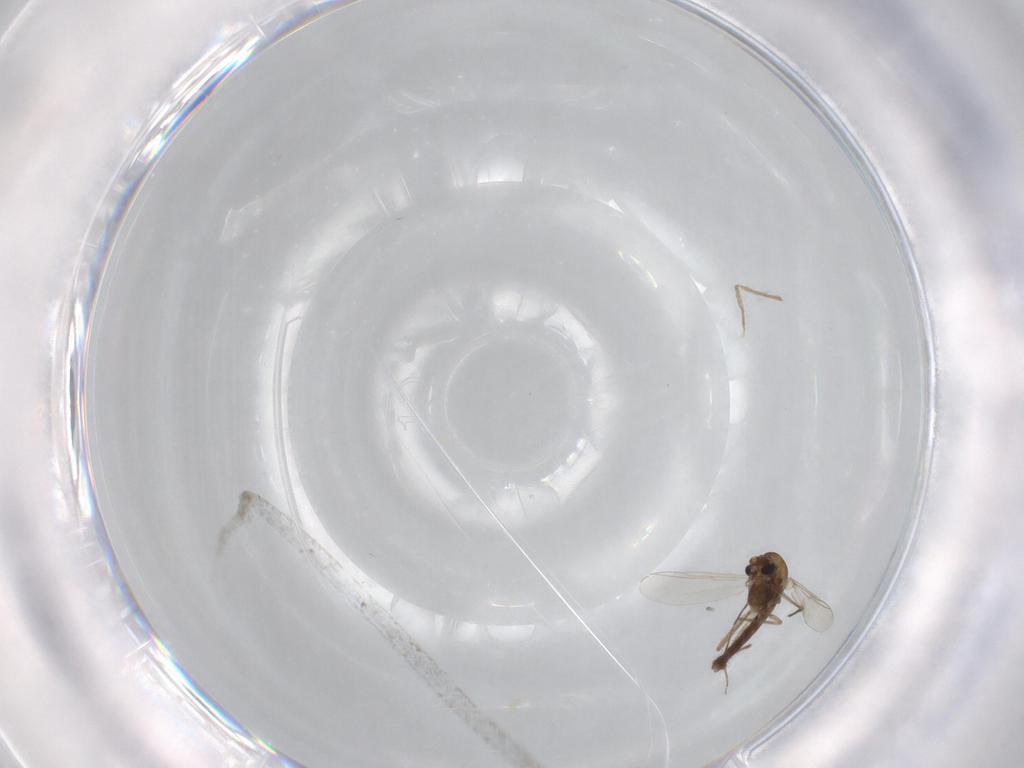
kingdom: Animalia
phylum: Arthropoda
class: Insecta
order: Diptera
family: Chironomidae
